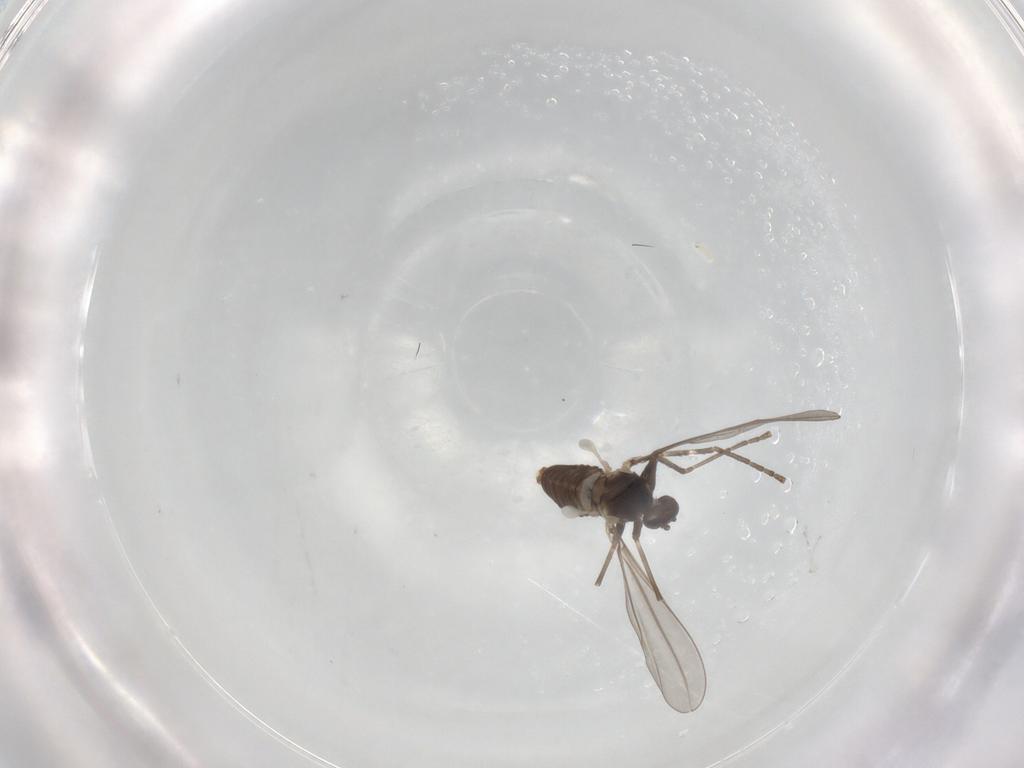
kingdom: Animalia
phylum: Arthropoda
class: Insecta
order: Diptera
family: Cecidomyiidae
